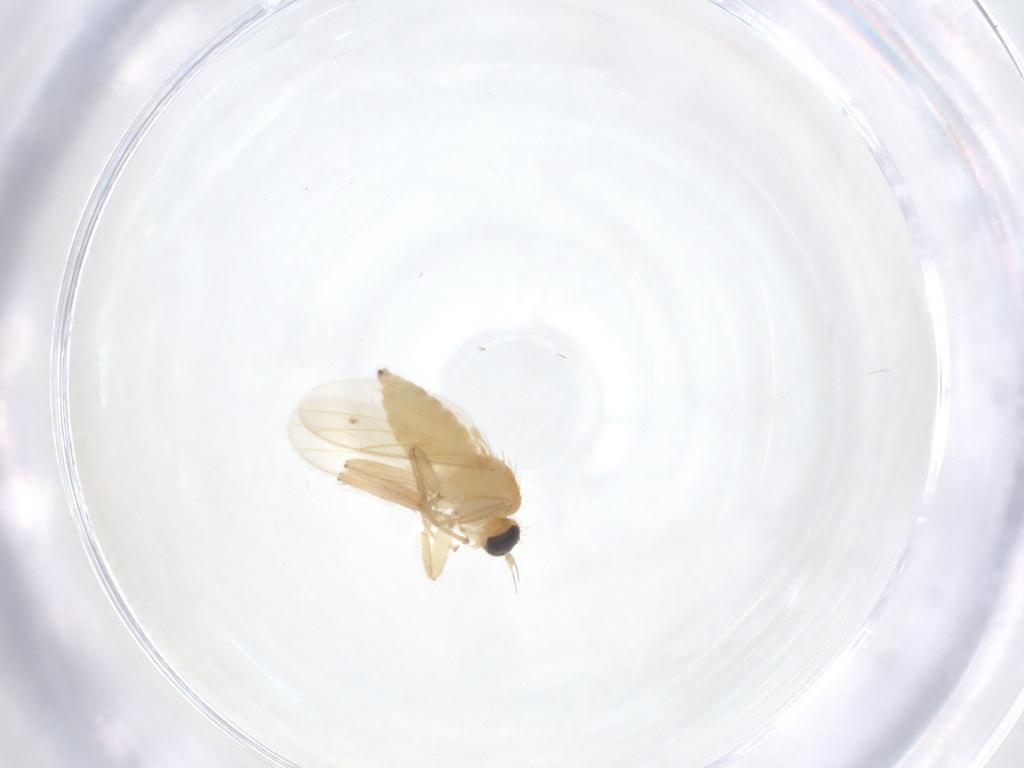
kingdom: Animalia
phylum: Arthropoda
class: Insecta
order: Diptera
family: Hybotidae
